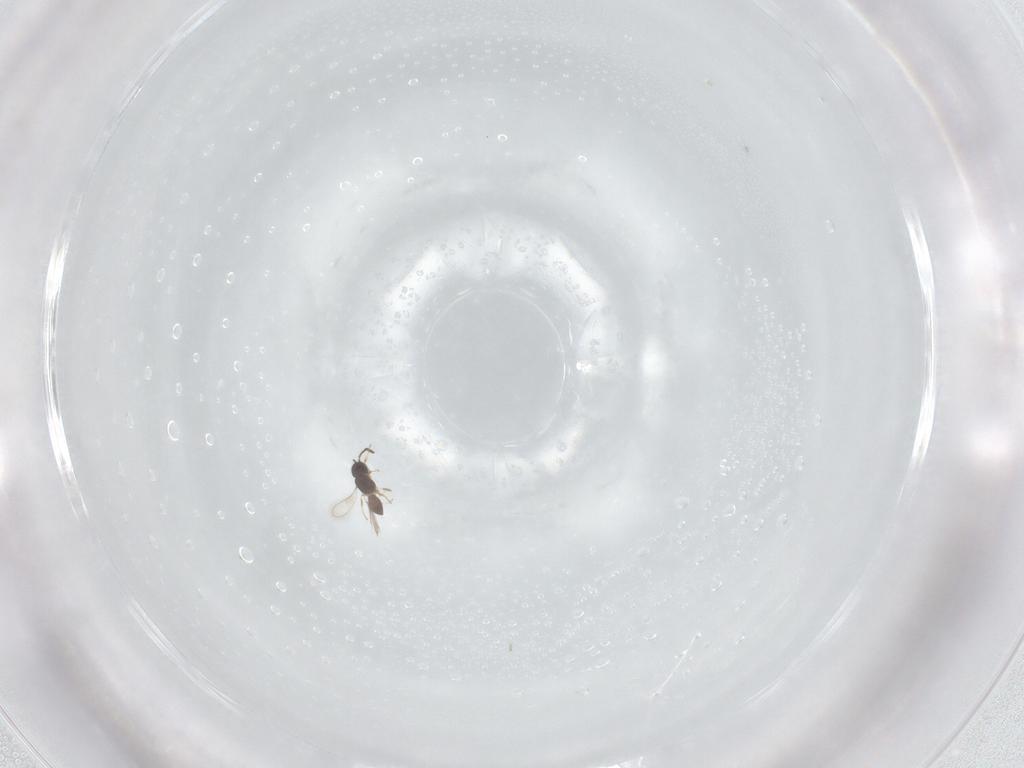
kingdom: Animalia
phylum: Arthropoda
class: Insecta
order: Hymenoptera
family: Scelionidae
